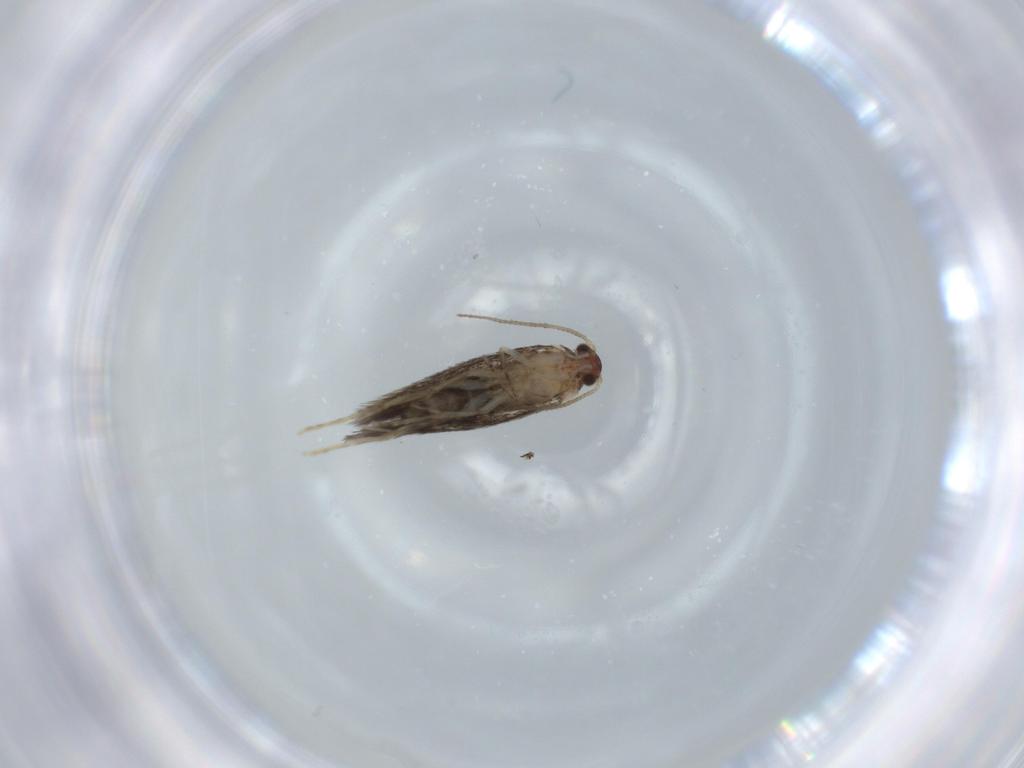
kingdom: Animalia
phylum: Arthropoda
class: Insecta
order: Lepidoptera
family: Tineidae
